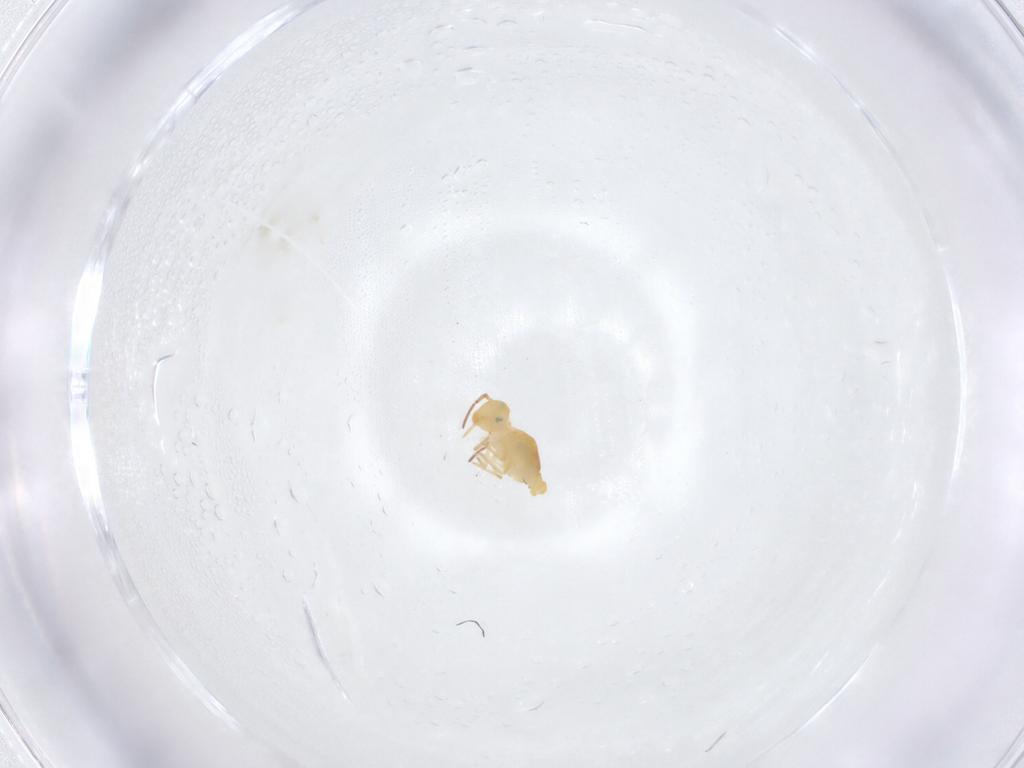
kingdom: Animalia
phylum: Arthropoda
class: Collembola
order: Symphypleona
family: Bourletiellidae
